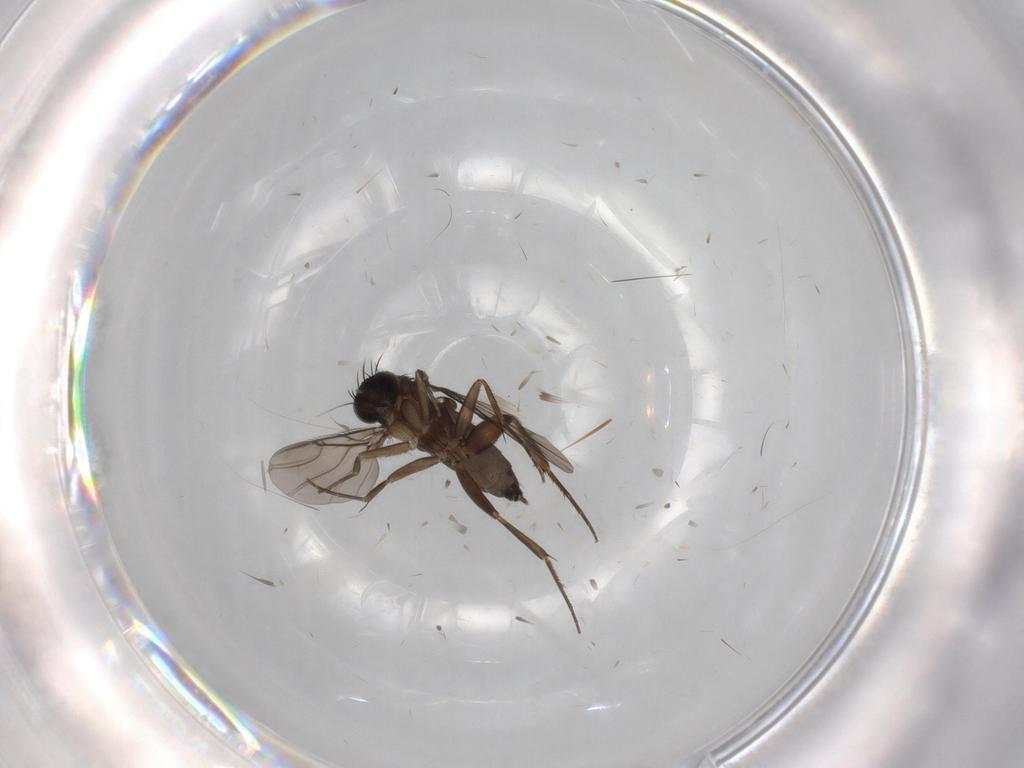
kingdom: Animalia
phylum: Arthropoda
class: Insecta
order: Diptera
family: Phoridae
